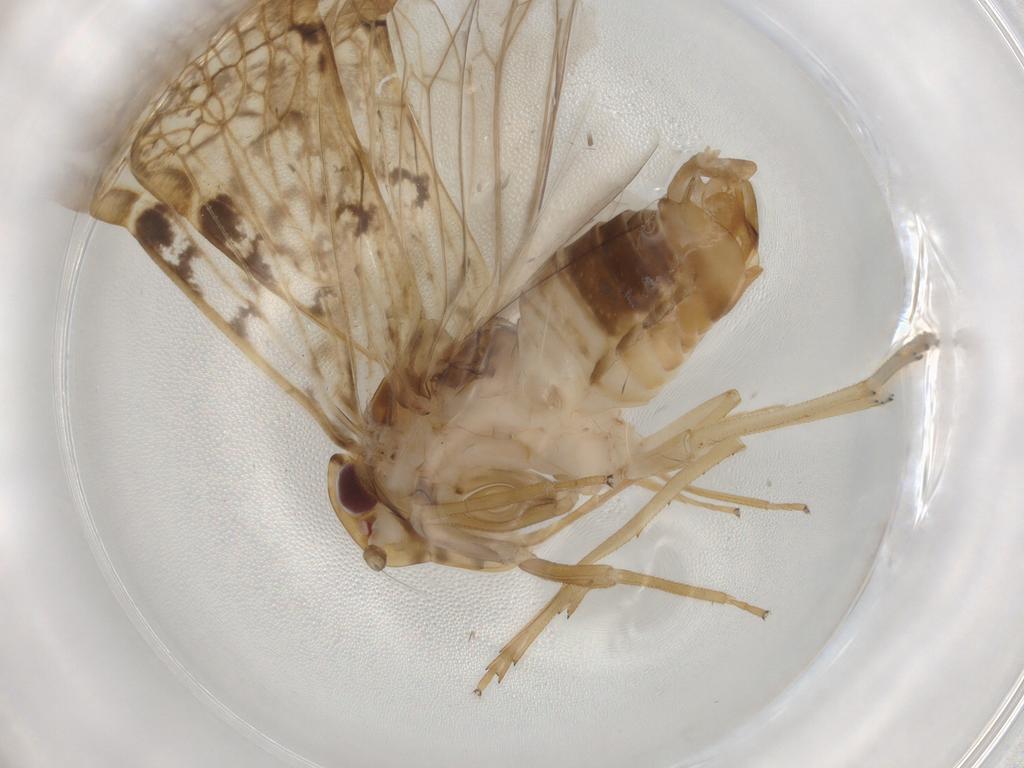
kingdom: Animalia
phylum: Arthropoda
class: Insecta
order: Hemiptera
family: Cixiidae
